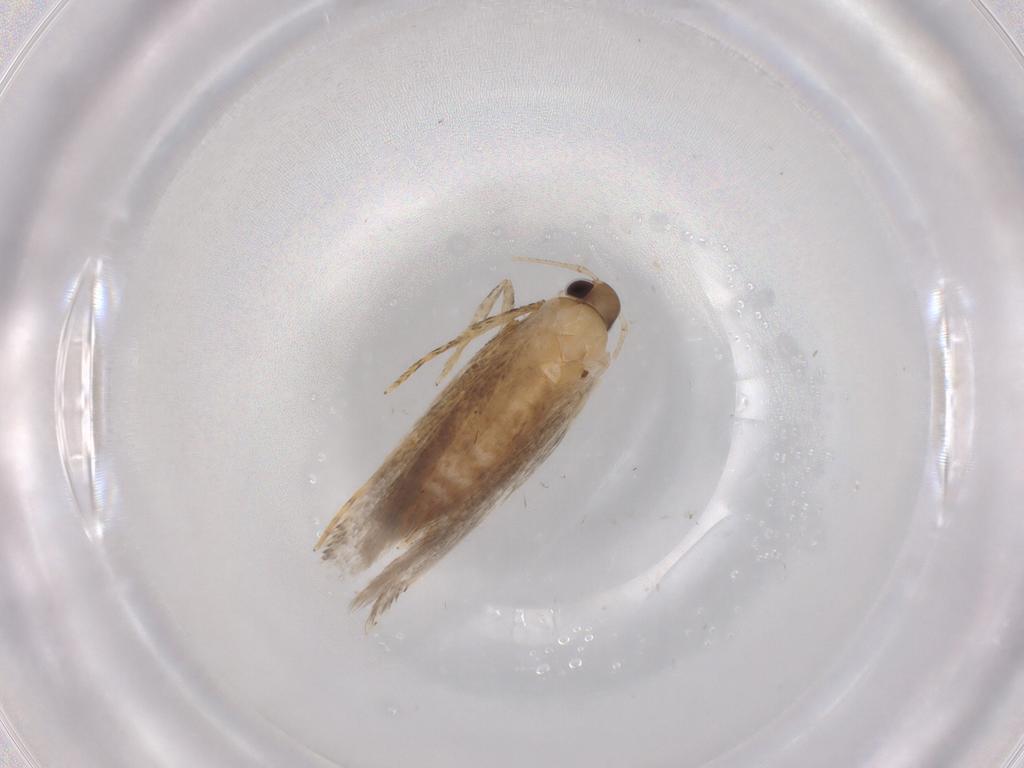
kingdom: Animalia
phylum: Arthropoda
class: Insecta
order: Lepidoptera
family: Autostichidae
